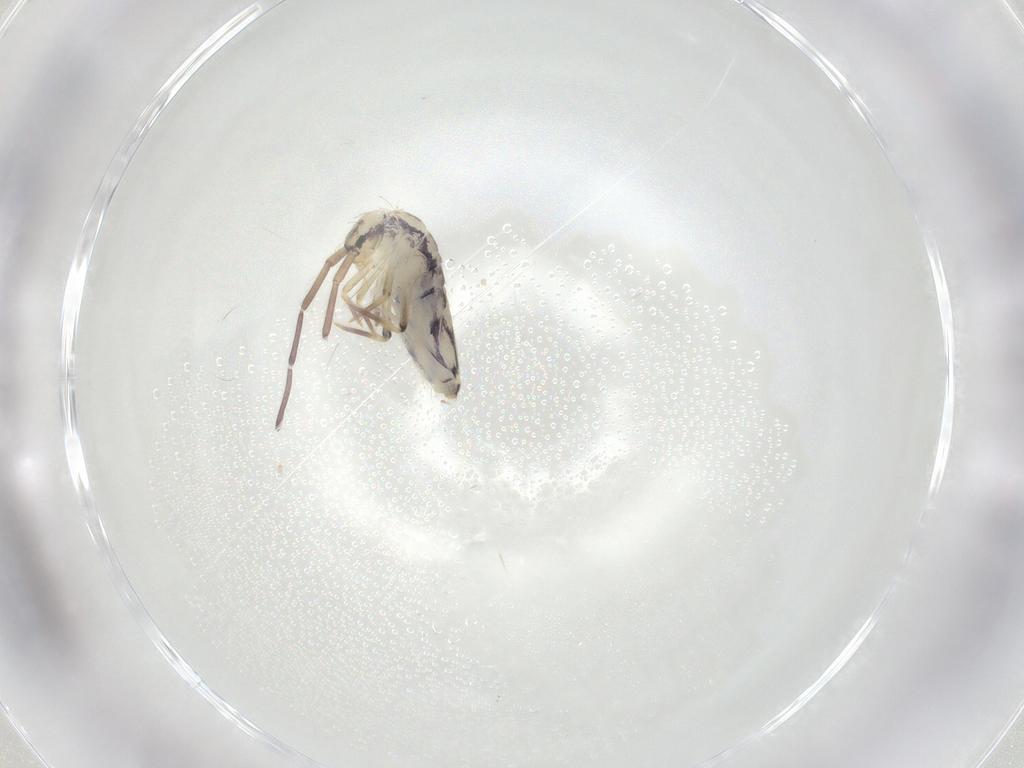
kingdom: Animalia
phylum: Arthropoda
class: Collembola
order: Entomobryomorpha
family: Entomobryidae
